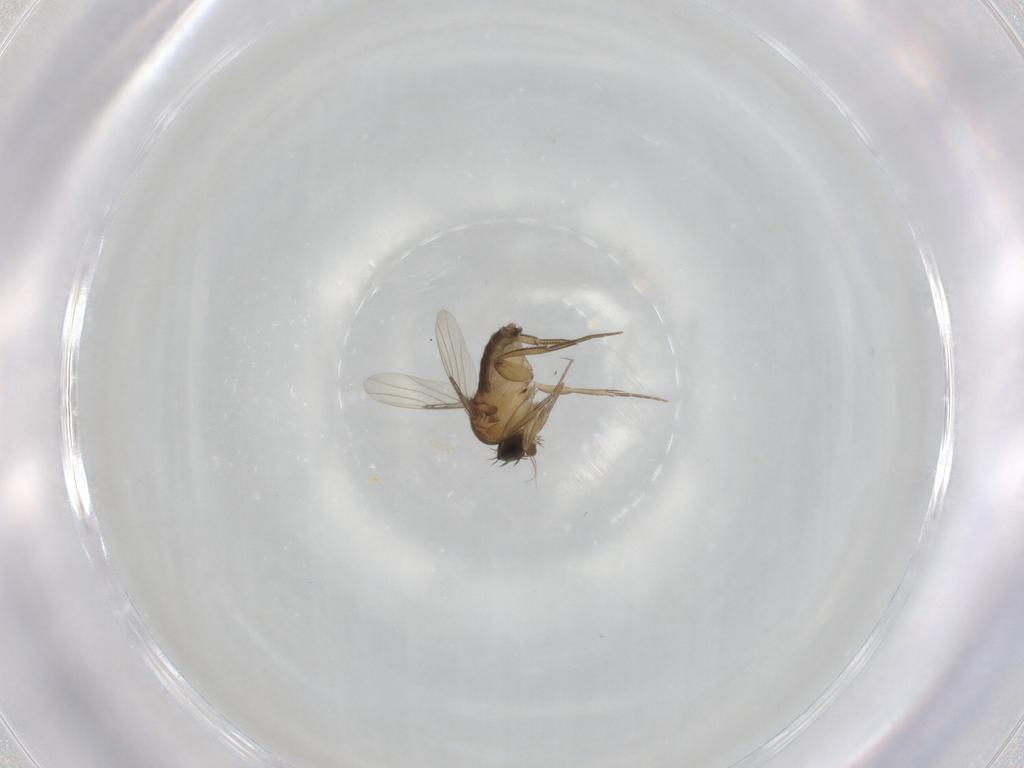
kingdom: Animalia
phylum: Arthropoda
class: Insecta
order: Diptera
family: Phoridae
